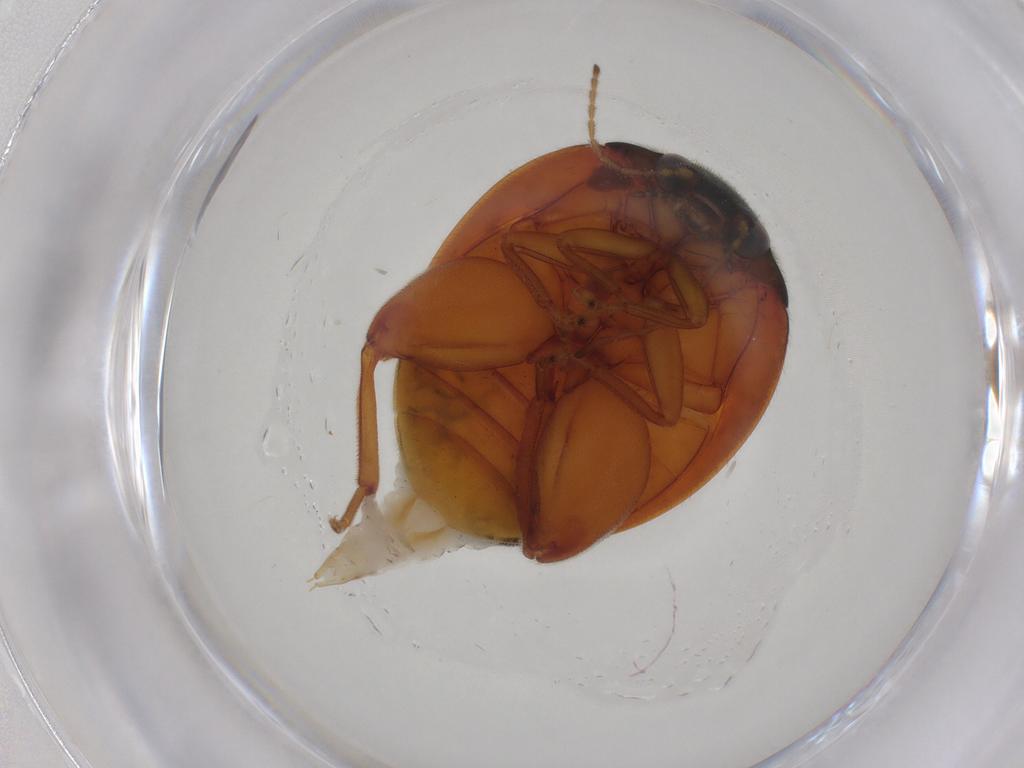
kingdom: Animalia
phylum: Arthropoda
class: Insecta
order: Coleoptera
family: Scirtidae
